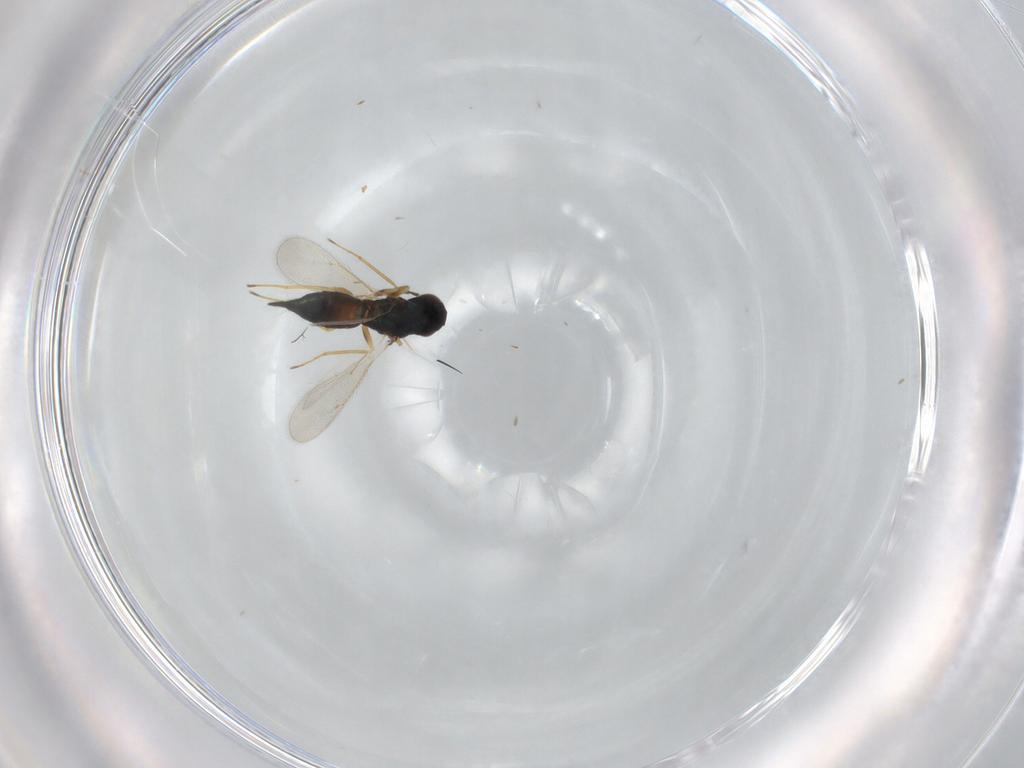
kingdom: Animalia
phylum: Arthropoda
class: Insecta
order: Hymenoptera
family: Eulophidae
